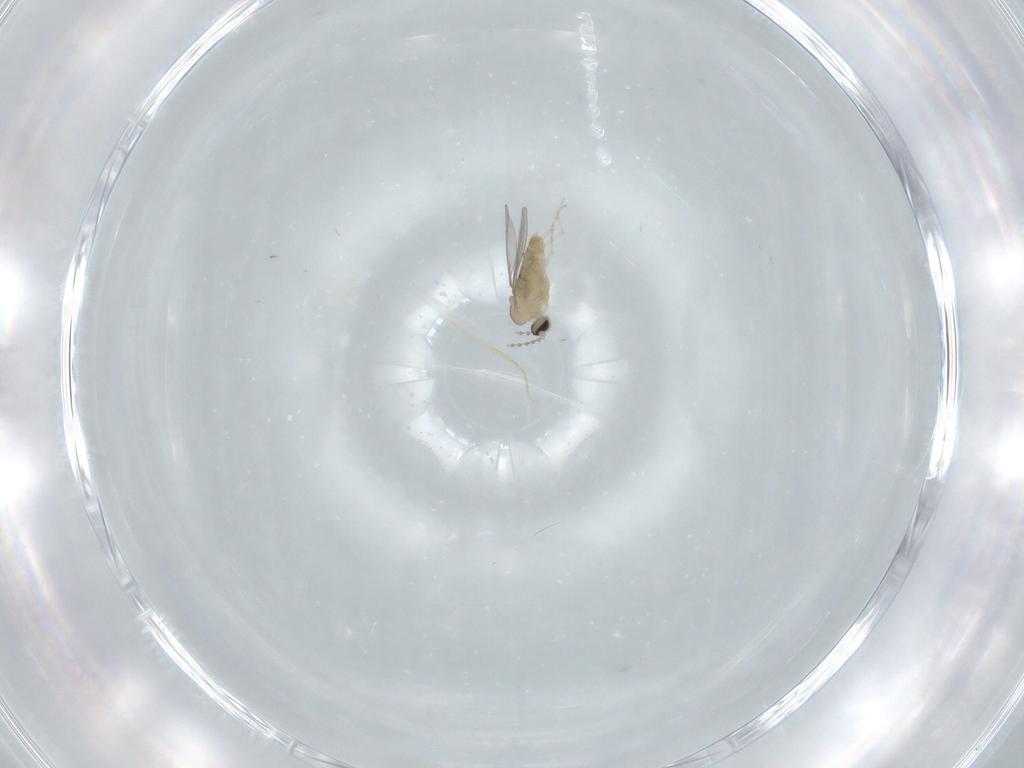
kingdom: Animalia
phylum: Arthropoda
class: Insecta
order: Diptera
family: Cecidomyiidae
